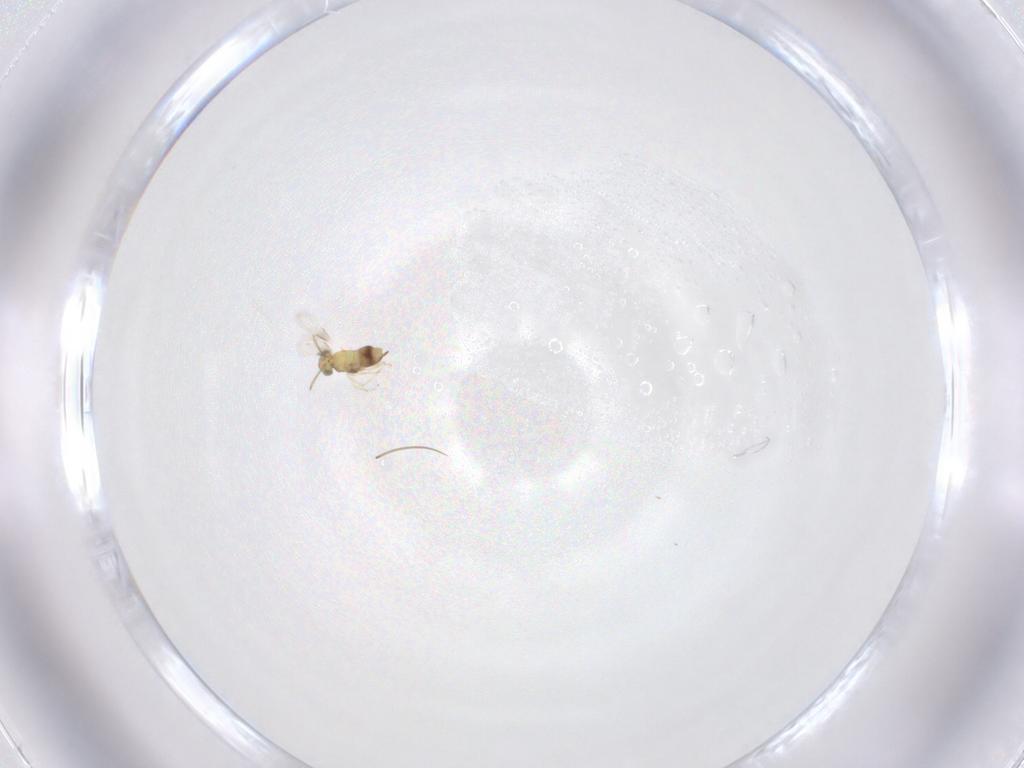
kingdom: Animalia
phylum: Arthropoda
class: Insecta
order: Hymenoptera
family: Aphelinidae
